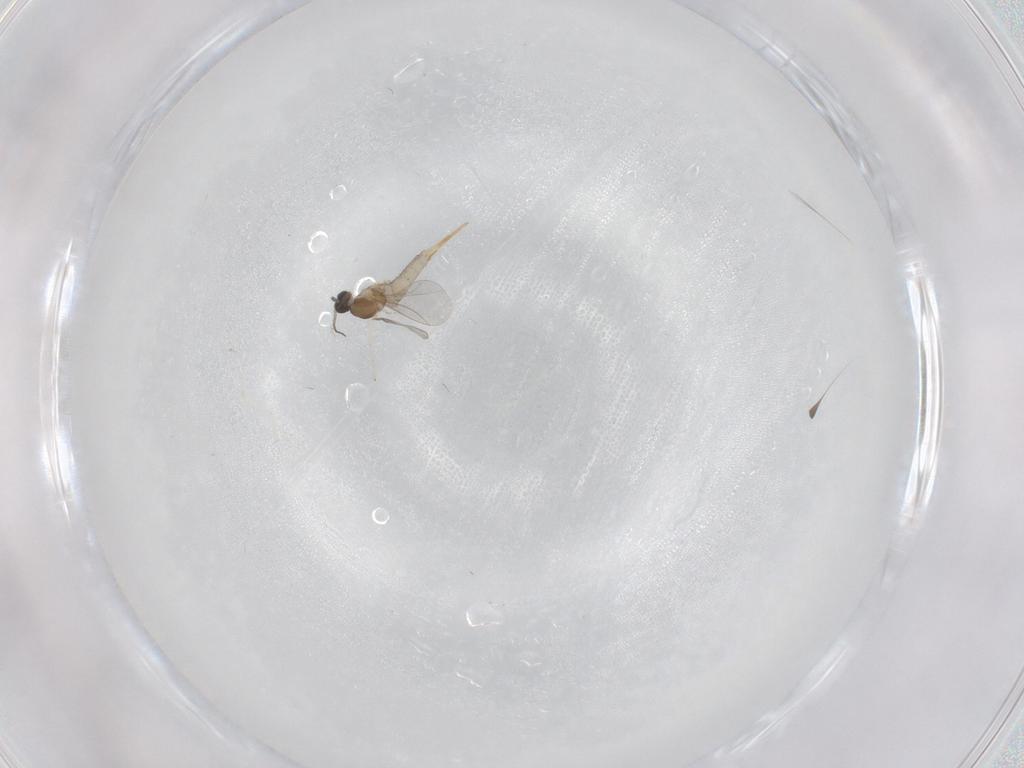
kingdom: Animalia
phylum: Arthropoda
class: Insecta
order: Diptera
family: Cecidomyiidae
